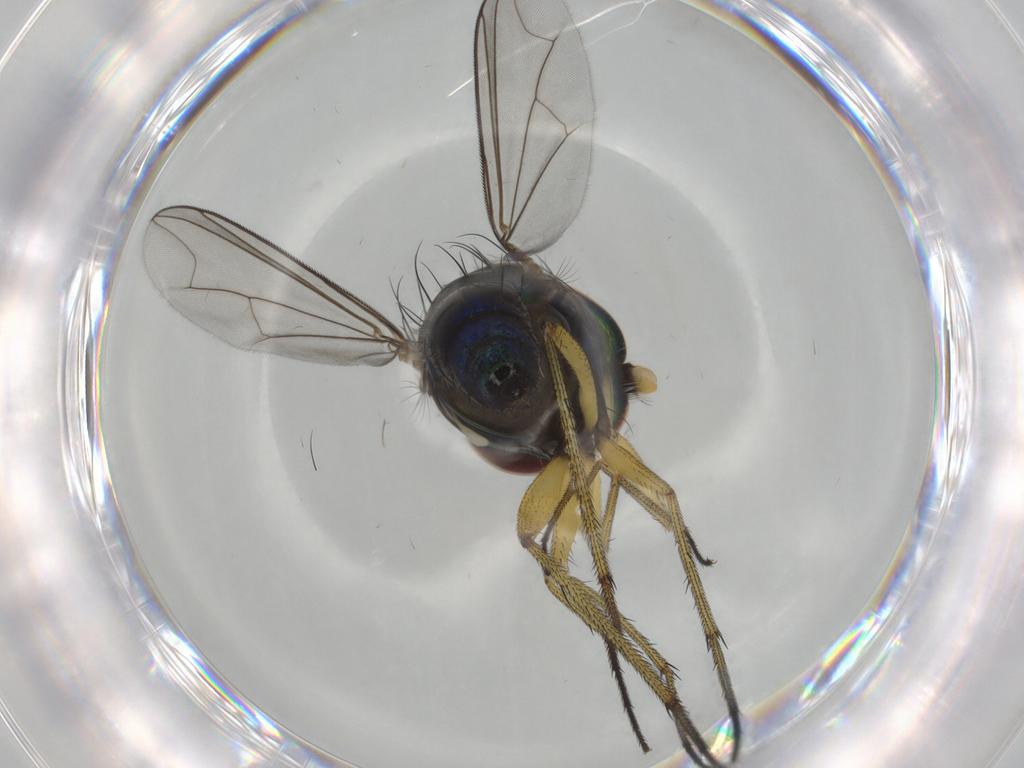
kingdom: Animalia
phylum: Arthropoda
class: Insecta
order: Diptera
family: Dolichopodidae
